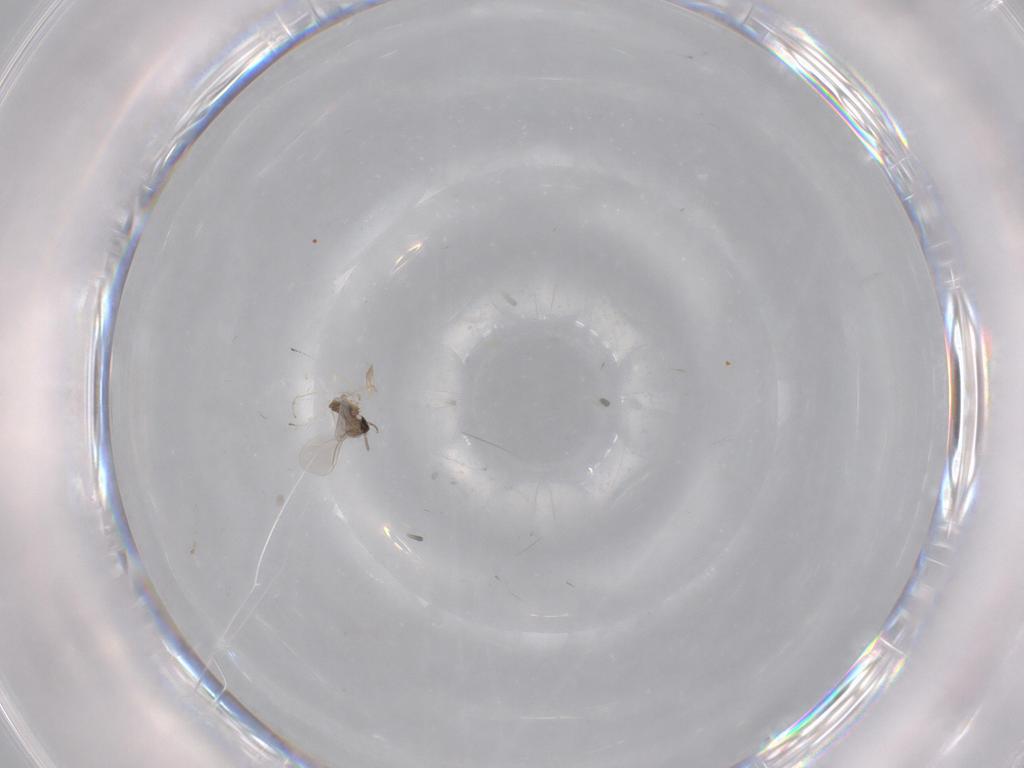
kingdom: Animalia
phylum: Arthropoda
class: Insecta
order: Diptera
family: Cecidomyiidae
